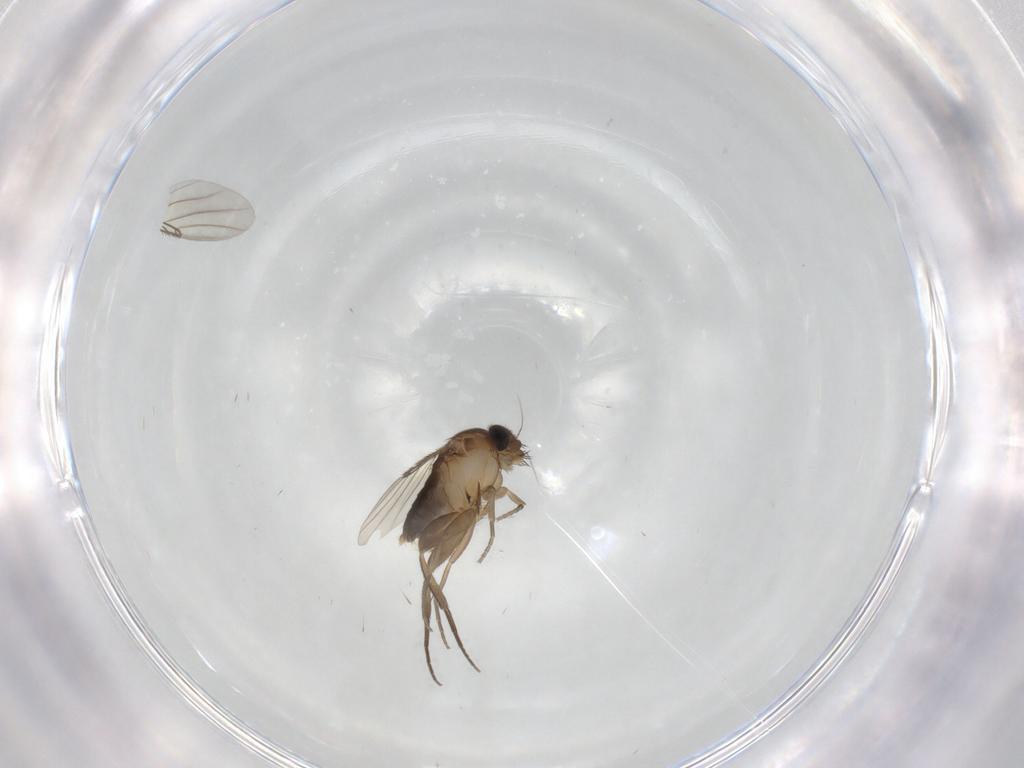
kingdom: Animalia
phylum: Arthropoda
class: Insecta
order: Diptera
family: Phoridae
